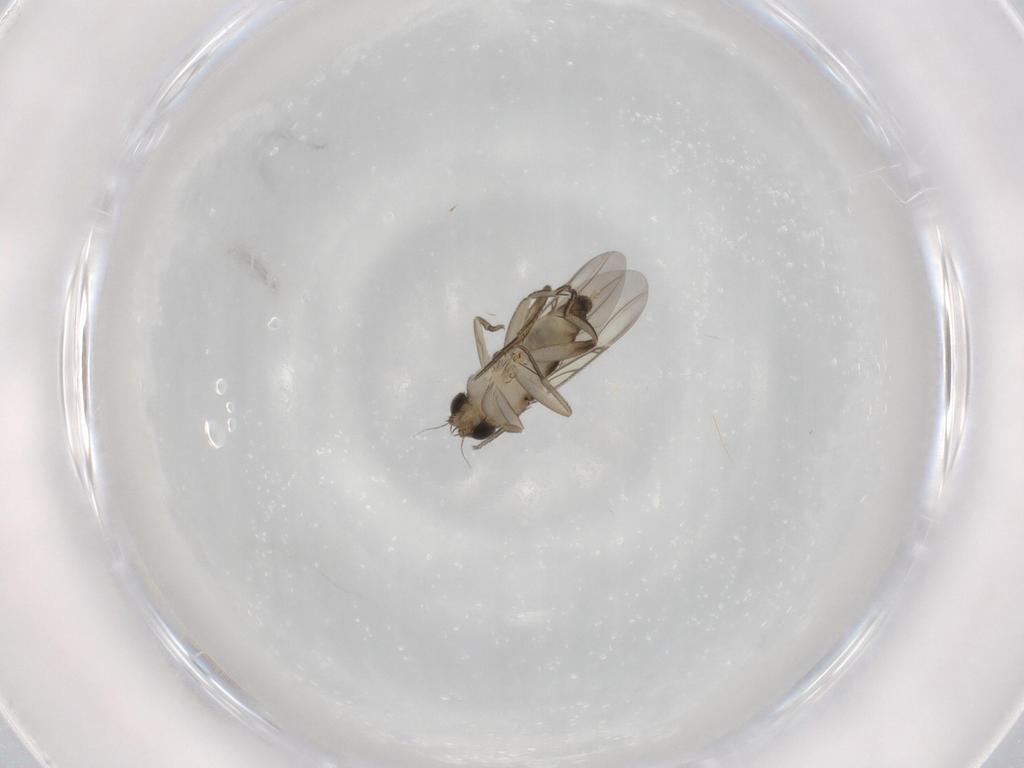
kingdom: Animalia
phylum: Arthropoda
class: Insecta
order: Diptera
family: Phoridae
